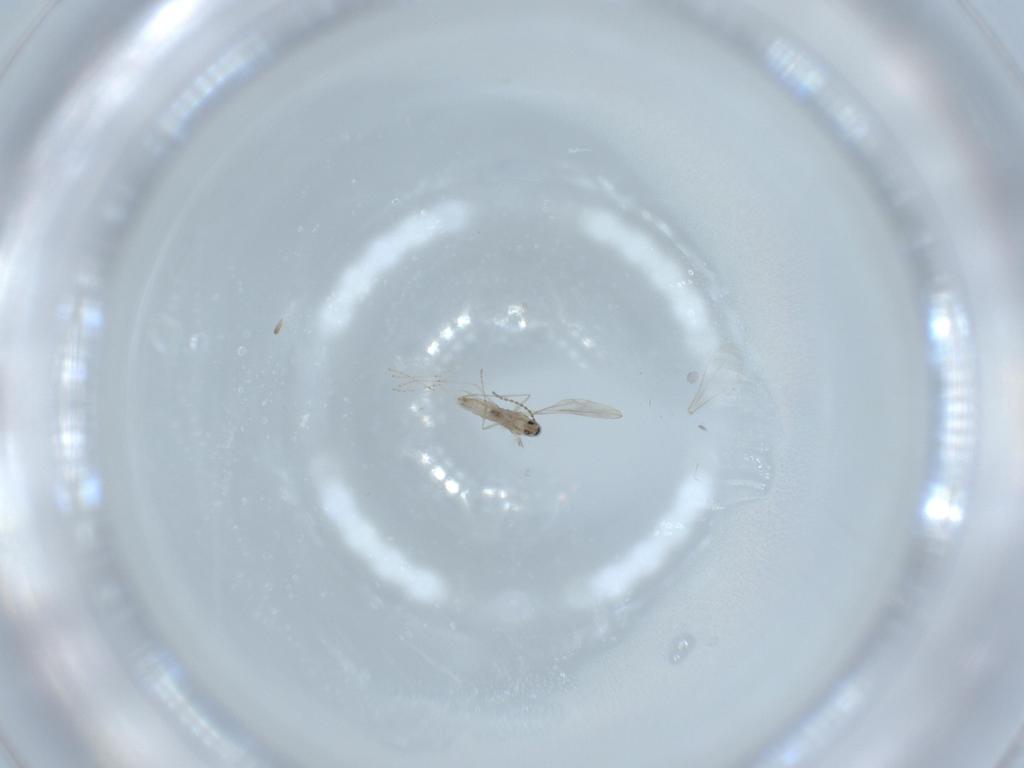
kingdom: Animalia
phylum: Arthropoda
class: Insecta
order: Diptera
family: Cecidomyiidae
